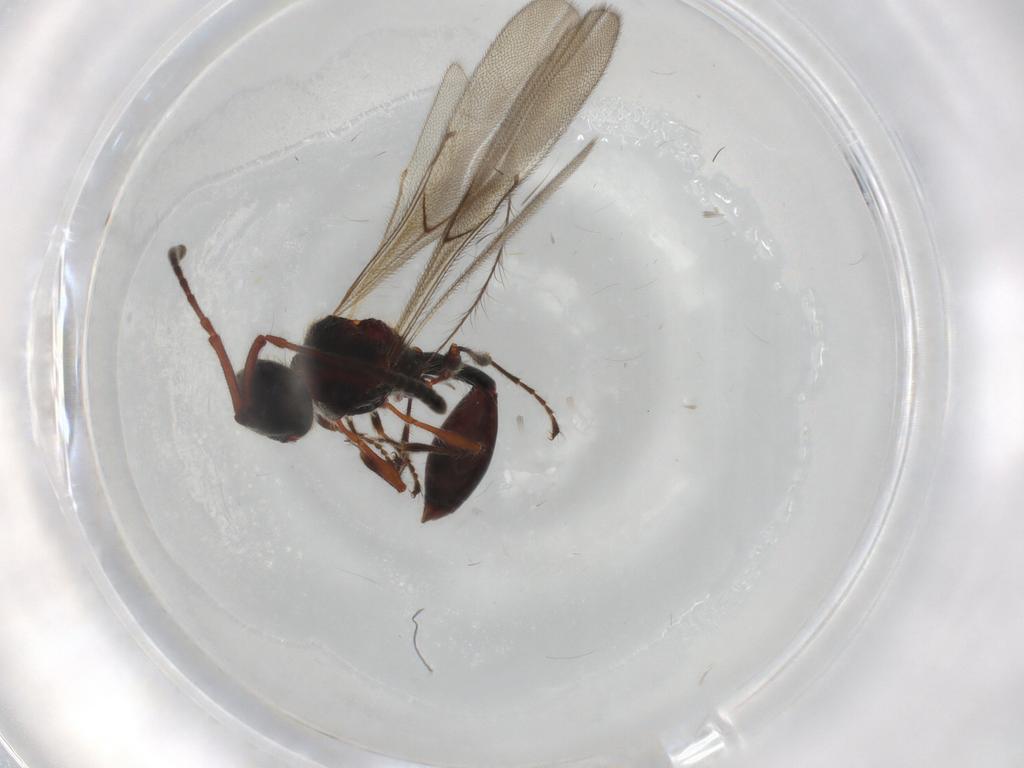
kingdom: Animalia
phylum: Arthropoda
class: Insecta
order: Hymenoptera
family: Diapriidae
